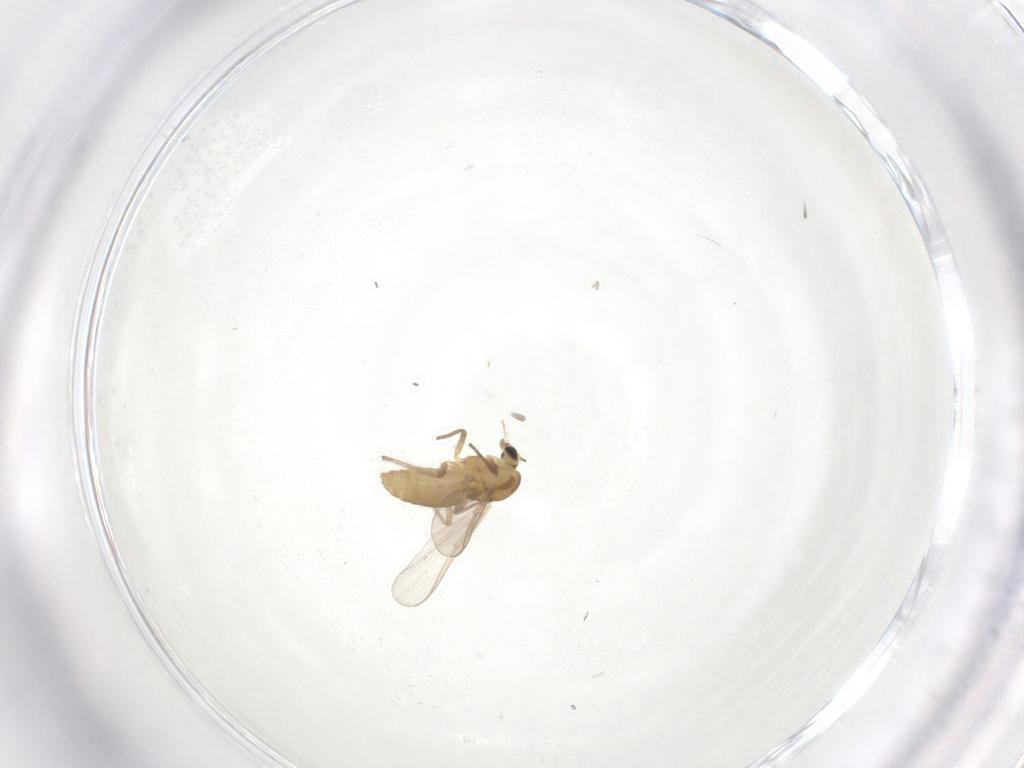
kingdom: Animalia
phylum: Arthropoda
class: Insecta
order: Diptera
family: Chironomidae
